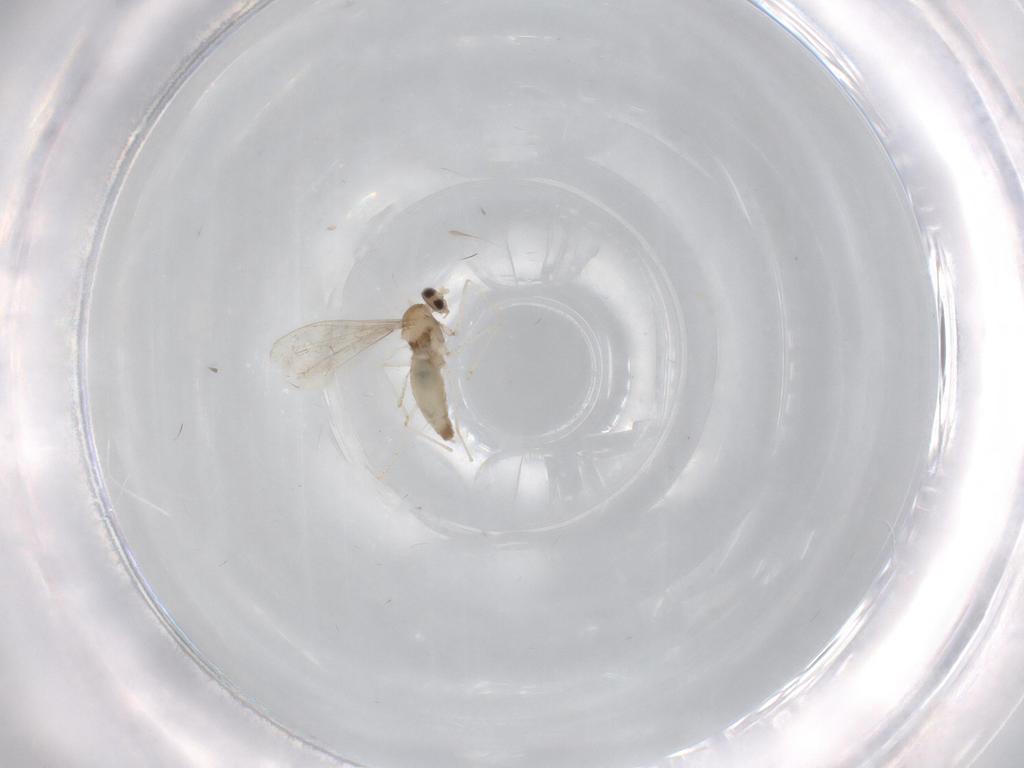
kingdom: Animalia
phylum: Arthropoda
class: Insecta
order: Diptera
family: Cecidomyiidae
